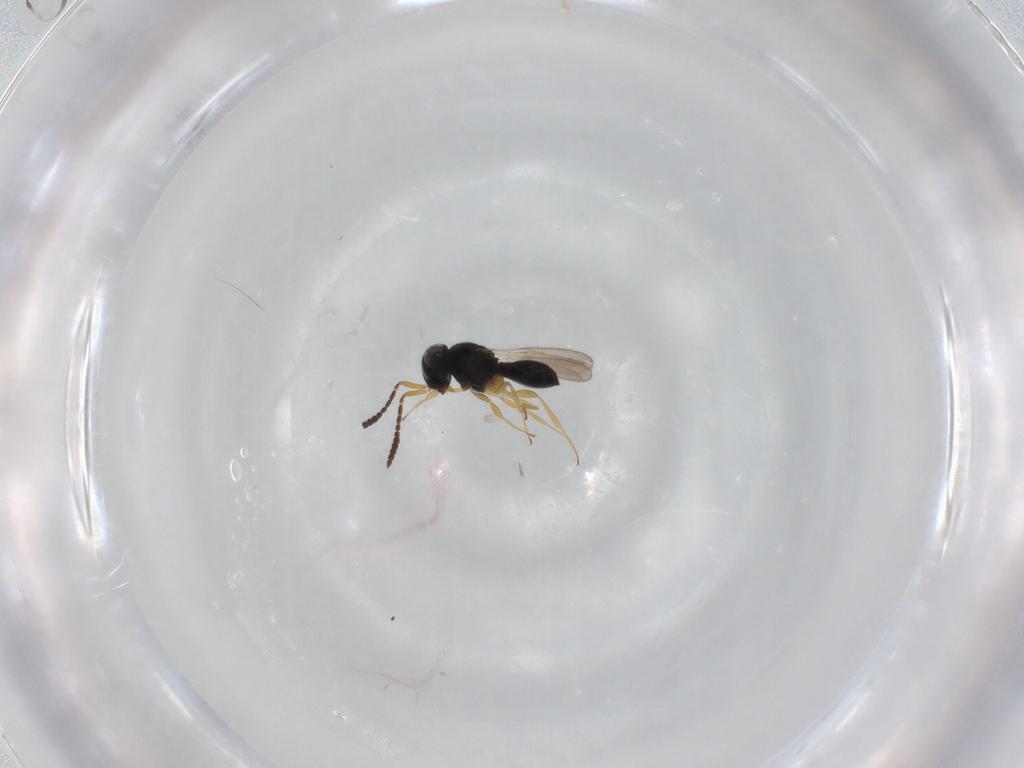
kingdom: Animalia
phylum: Arthropoda
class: Insecta
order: Hymenoptera
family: Scelionidae
